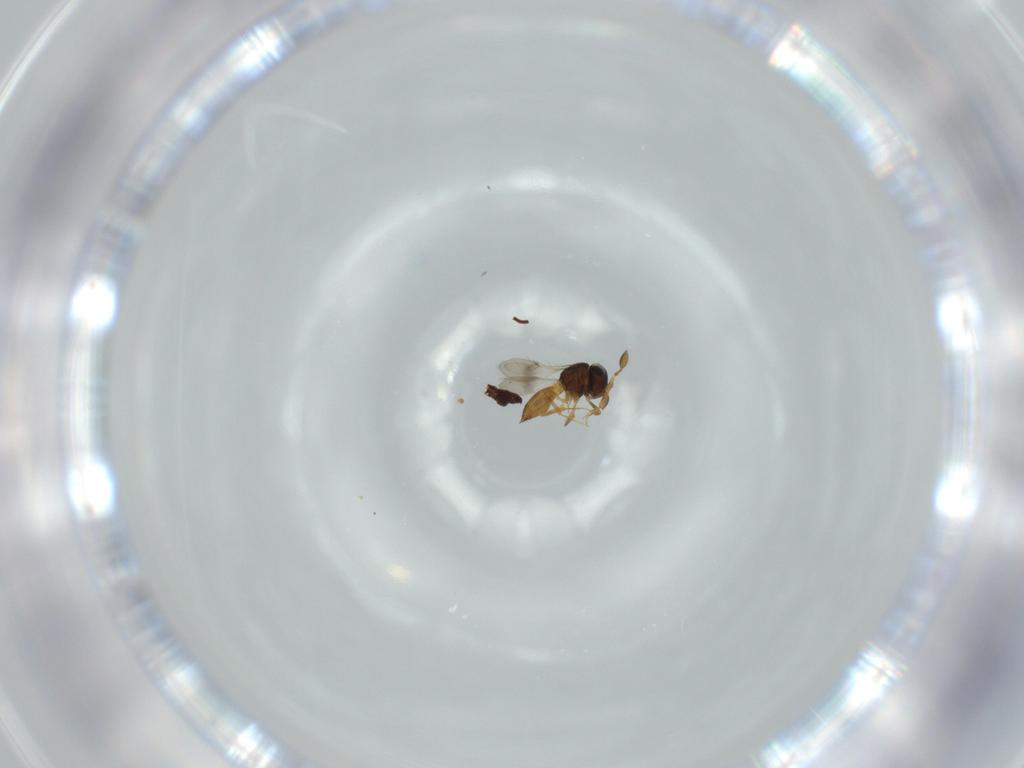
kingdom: Animalia
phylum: Arthropoda
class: Insecta
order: Hymenoptera
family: Scelionidae
